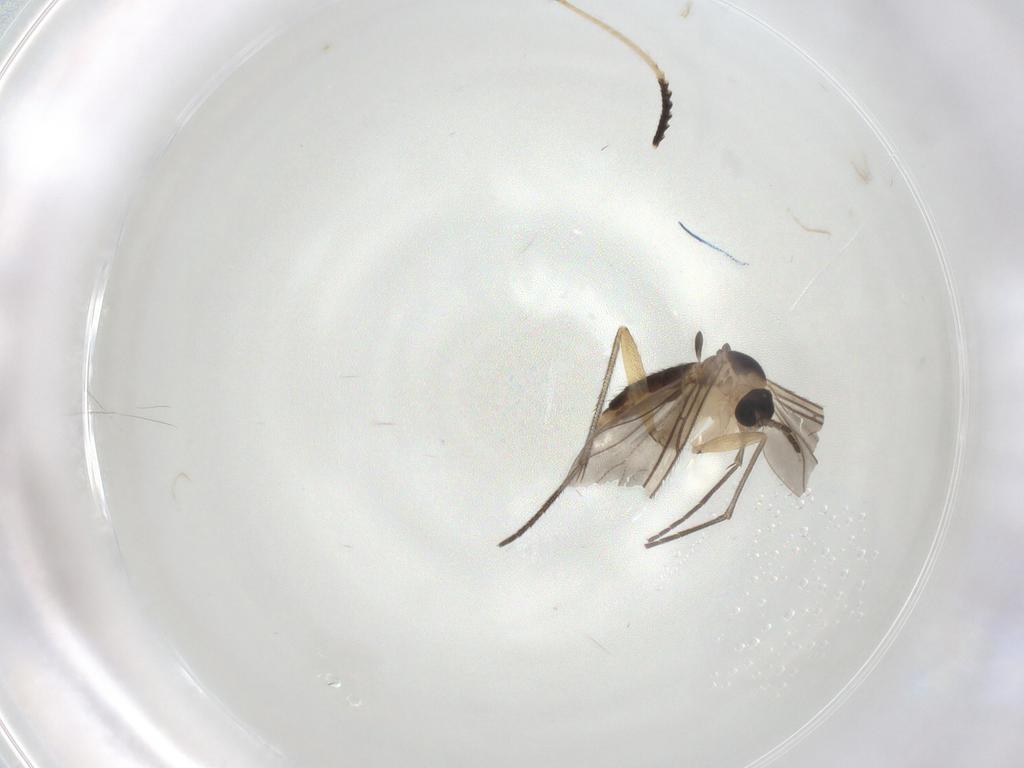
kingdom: Animalia
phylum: Arthropoda
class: Insecta
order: Diptera
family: Sciaridae
